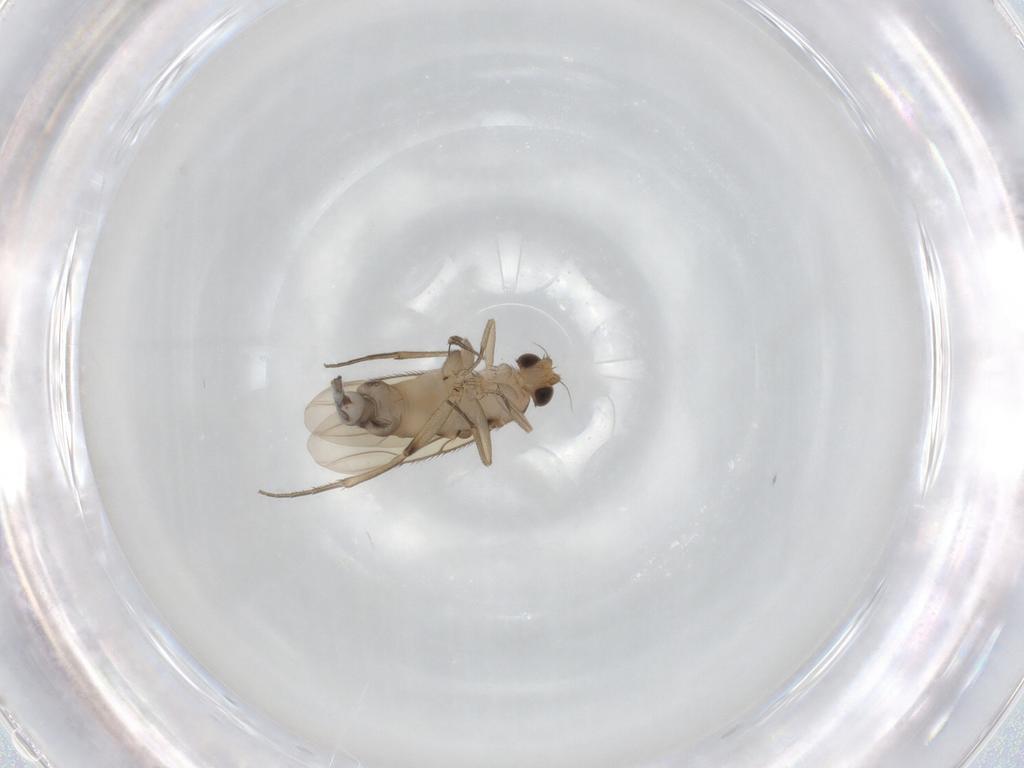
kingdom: Animalia
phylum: Arthropoda
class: Insecta
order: Diptera
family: Phoridae
